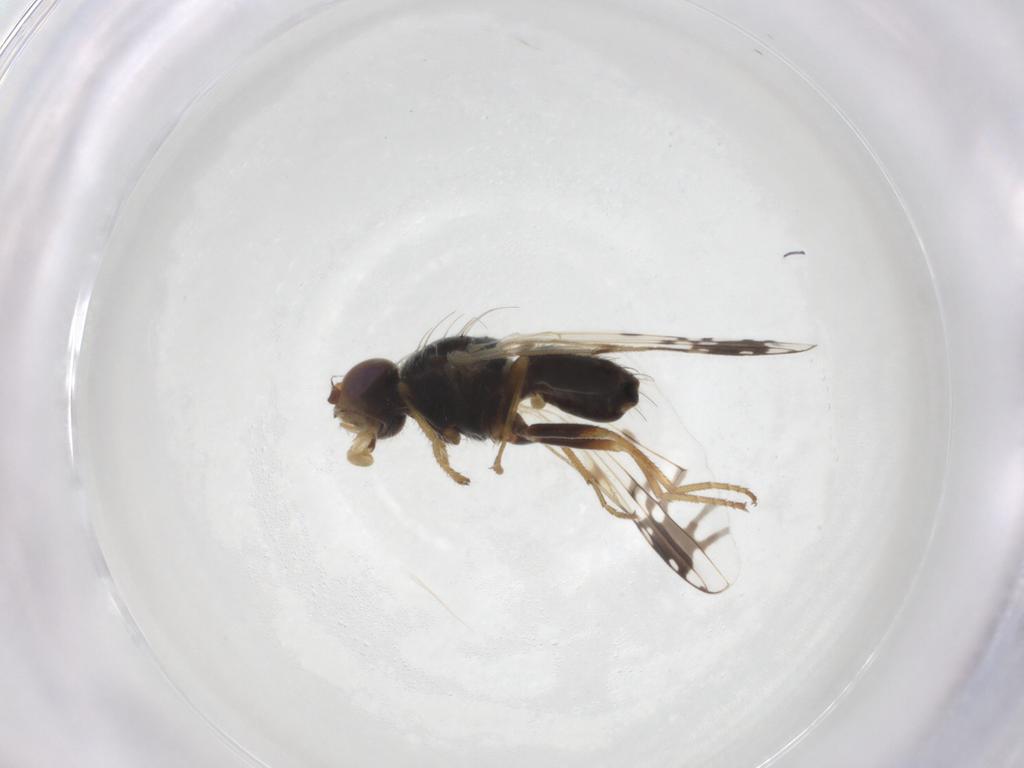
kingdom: Animalia
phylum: Arthropoda
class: Insecta
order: Diptera
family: Tephritidae
